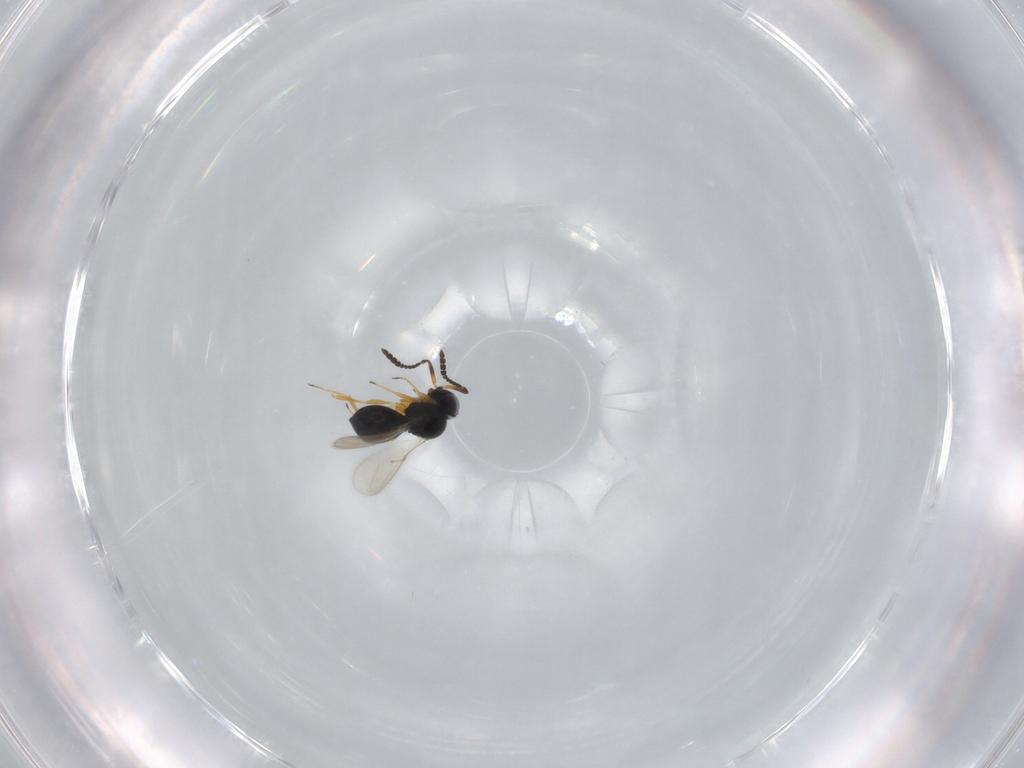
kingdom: Animalia
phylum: Arthropoda
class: Insecta
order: Hymenoptera
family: Scelionidae
